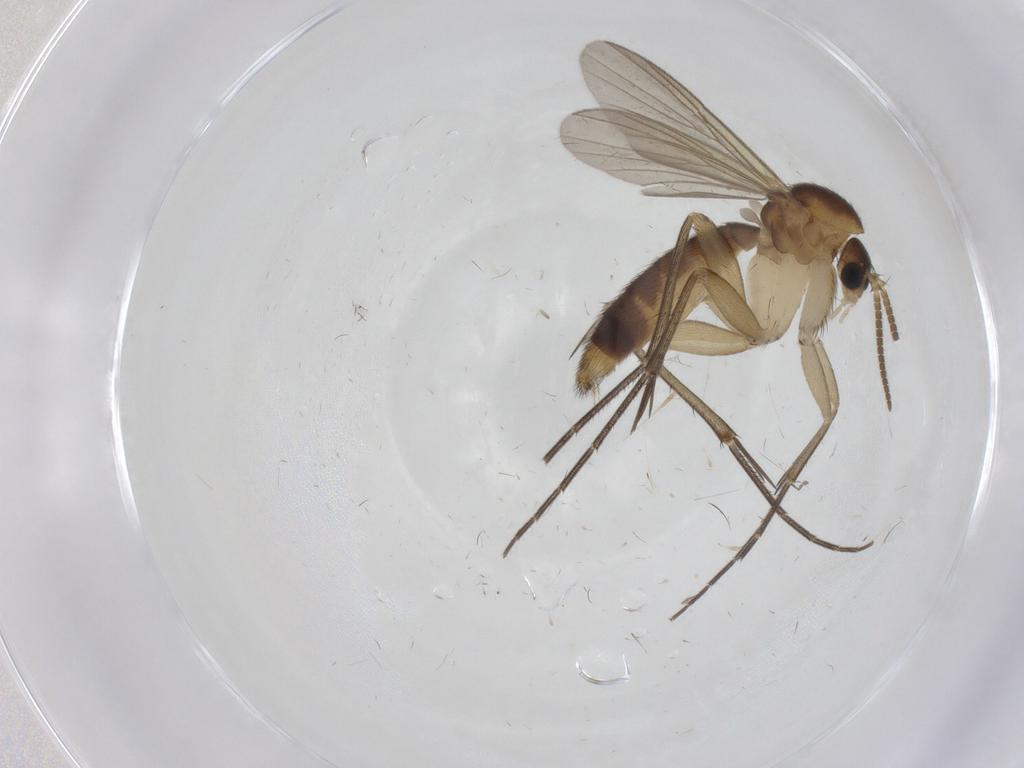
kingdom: Animalia
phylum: Arthropoda
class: Insecta
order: Diptera
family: Mycetophilidae
